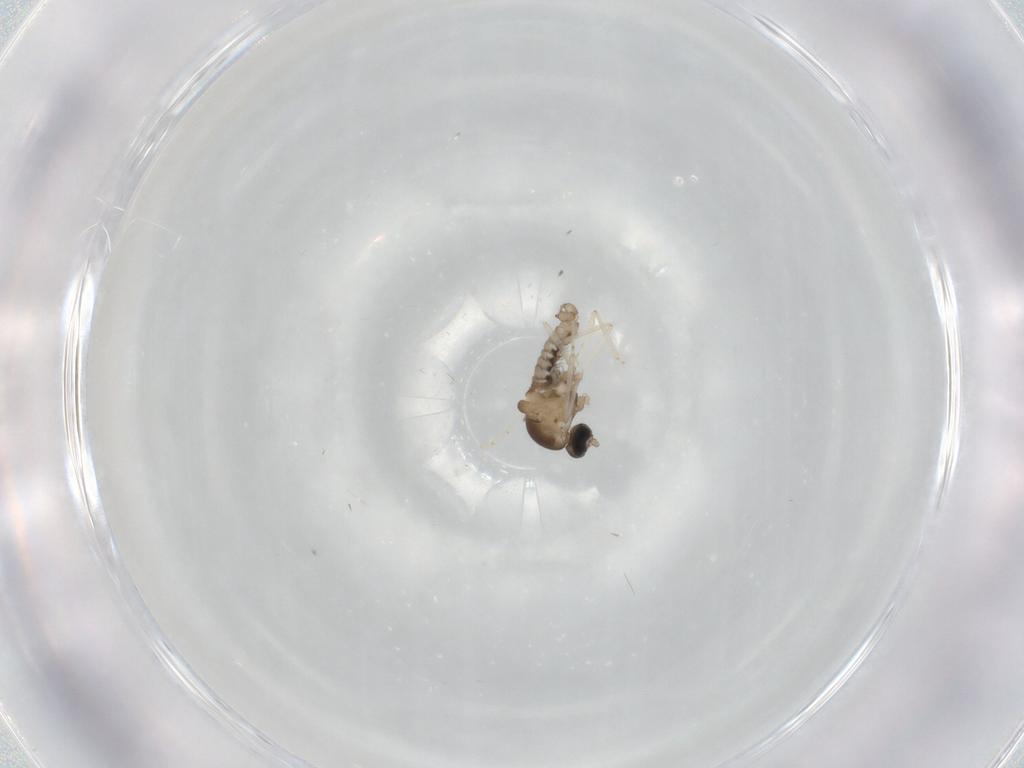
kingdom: Animalia
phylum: Arthropoda
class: Insecta
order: Diptera
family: Cecidomyiidae
